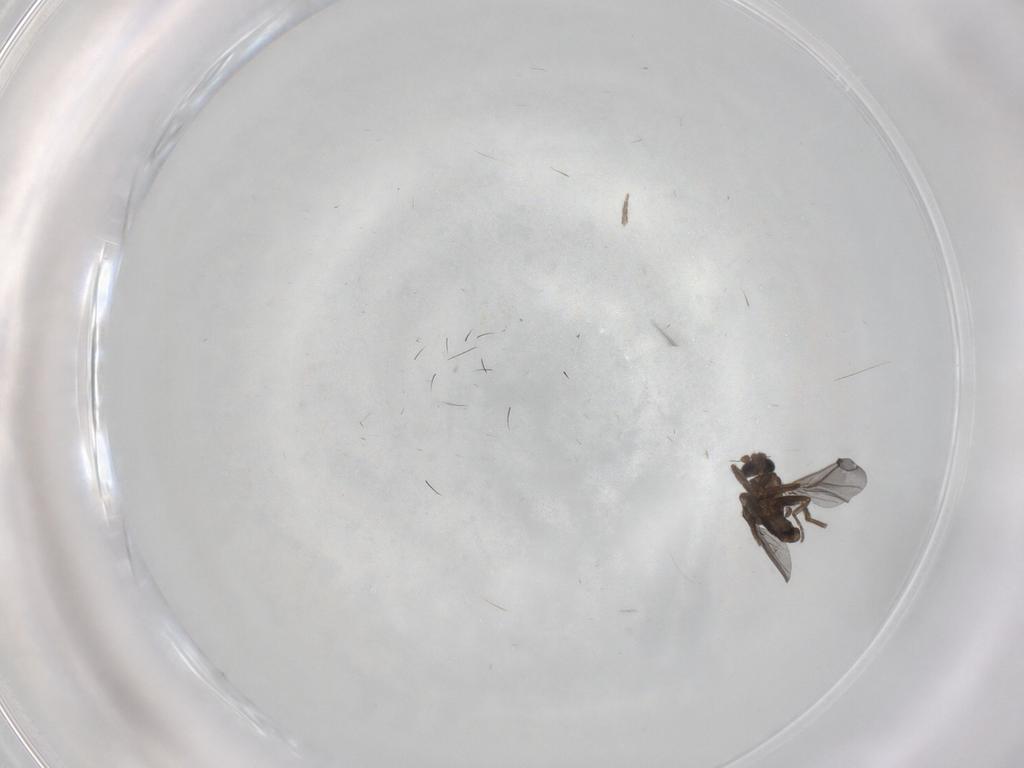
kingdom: Animalia
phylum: Arthropoda
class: Insecta
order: Diptera
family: Phoridae
